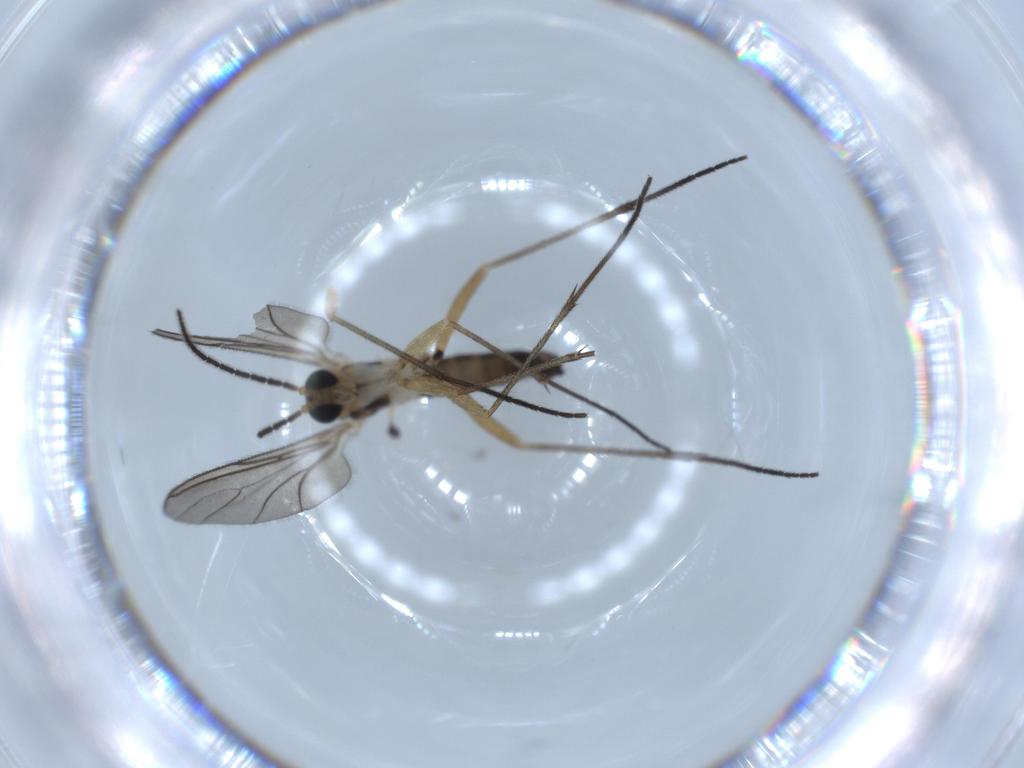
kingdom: Animalia
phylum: Arthropoda
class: Insecta
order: Diptera
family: Sciaridae
